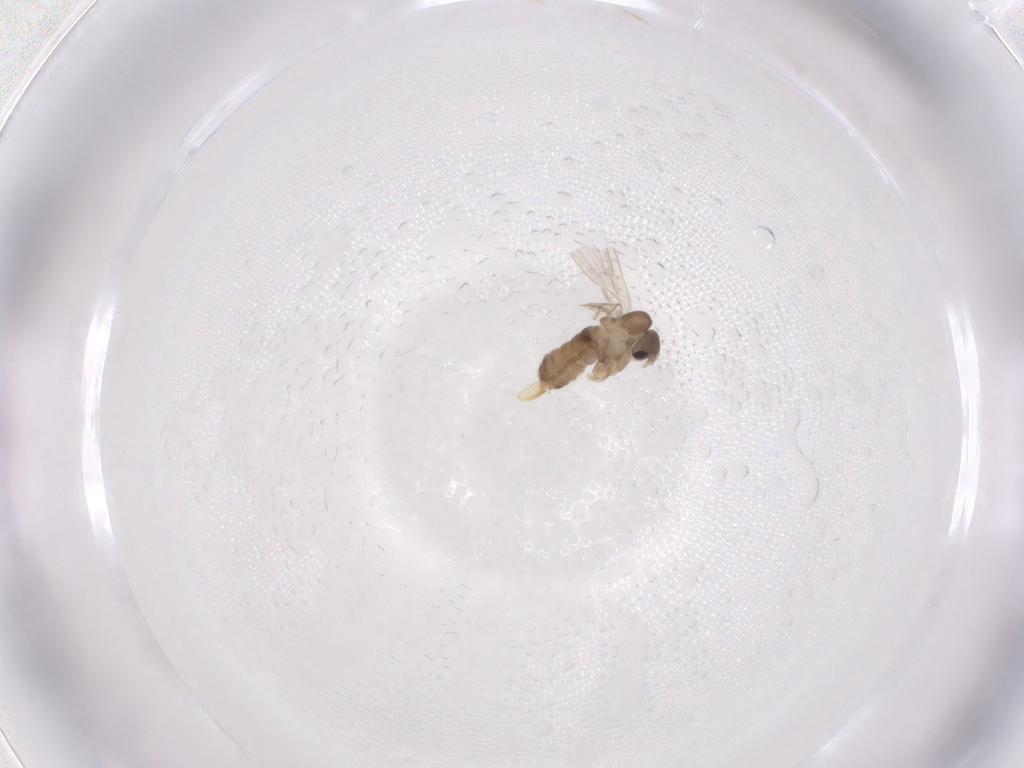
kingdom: Animalia
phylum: Arthropoda
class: Insecta
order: Diptera
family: Psychodidae
